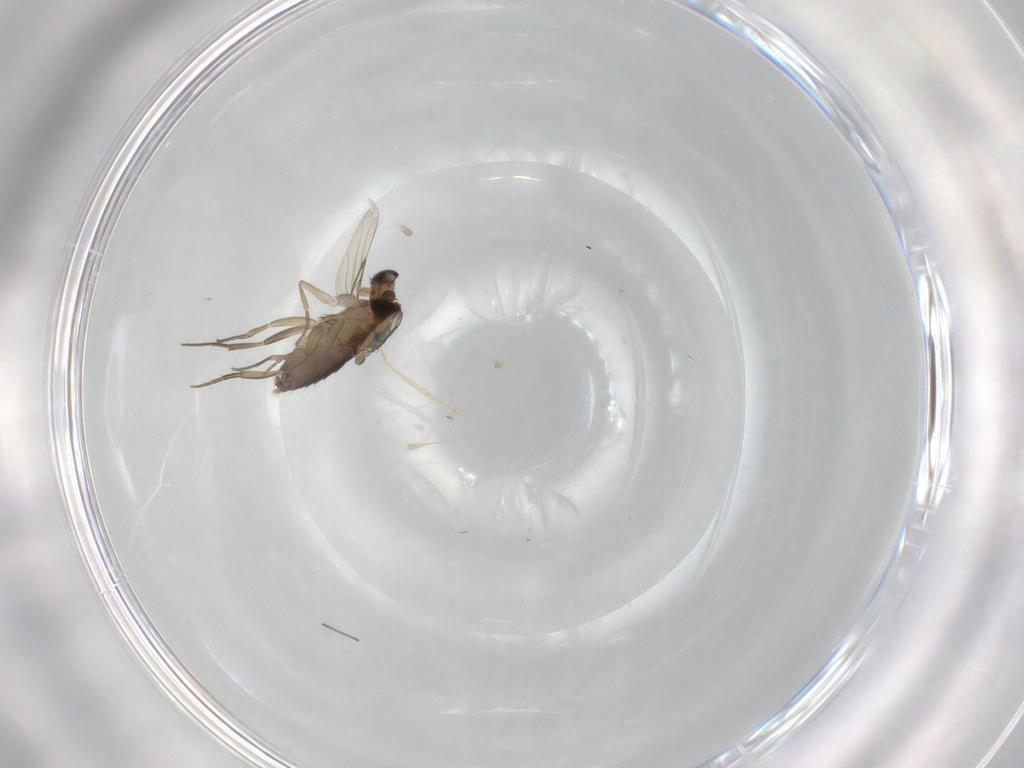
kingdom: Animalia
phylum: Arthropoda
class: Insecta
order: Diptera
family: Phoridae
